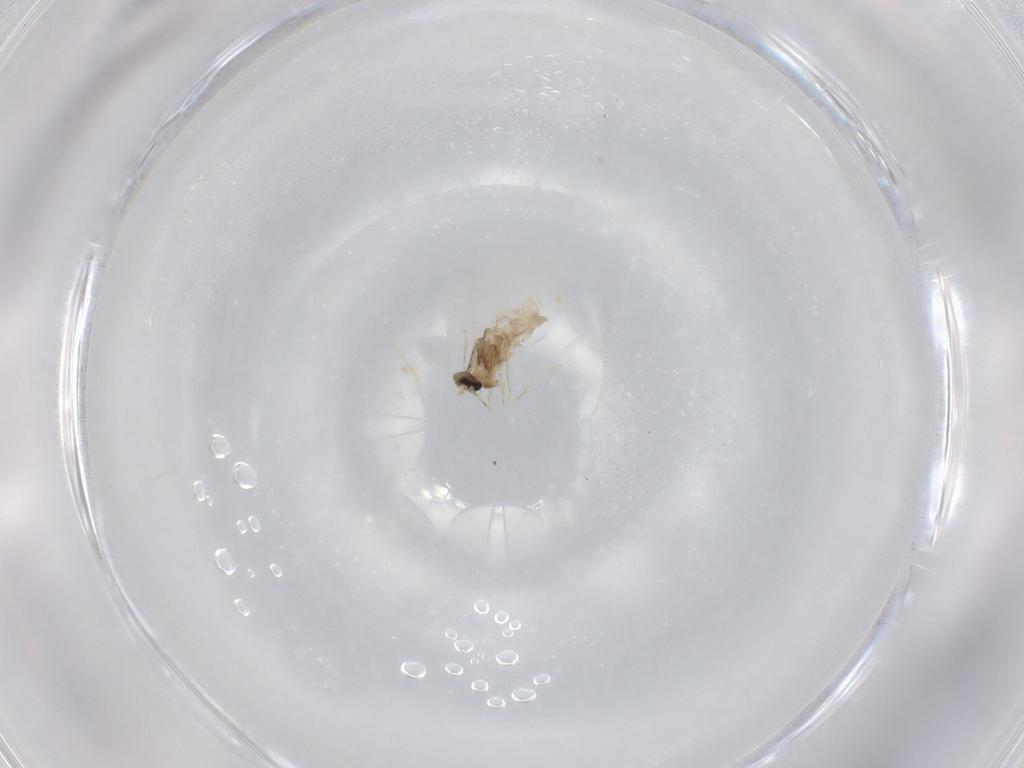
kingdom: Animalia
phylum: Arthropoda
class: Insecta
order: Diptera
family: Cecidomyiidae
